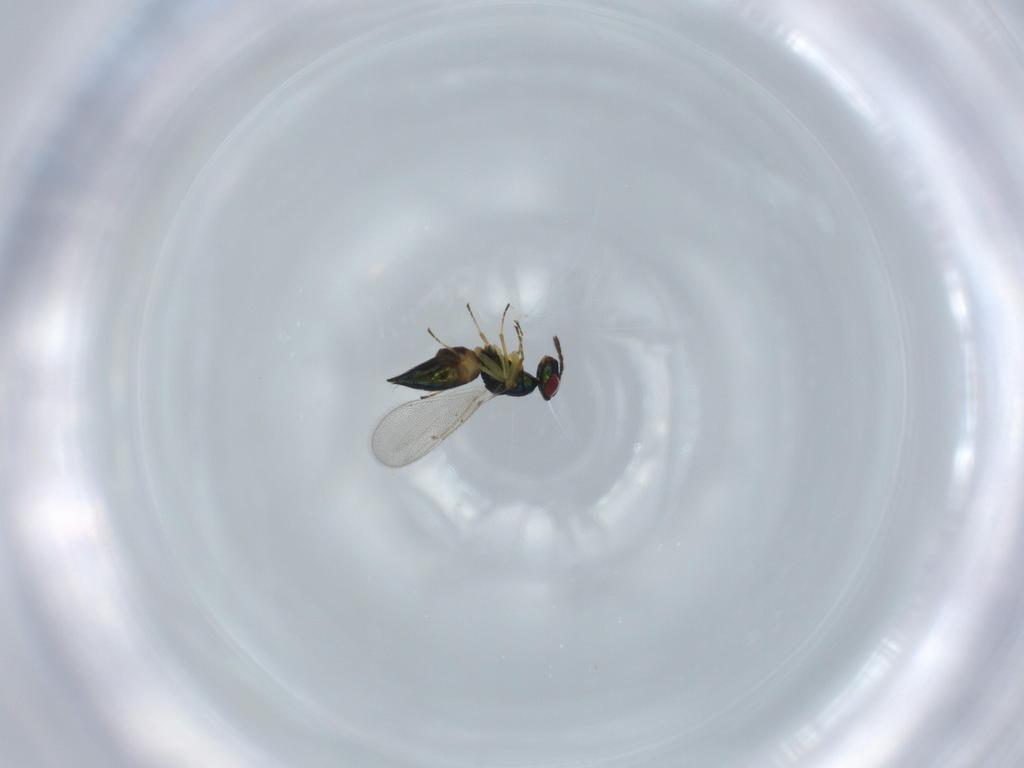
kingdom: Animalia
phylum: Arthropoda
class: Insecta
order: Hymenoptera
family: Eulophidae
